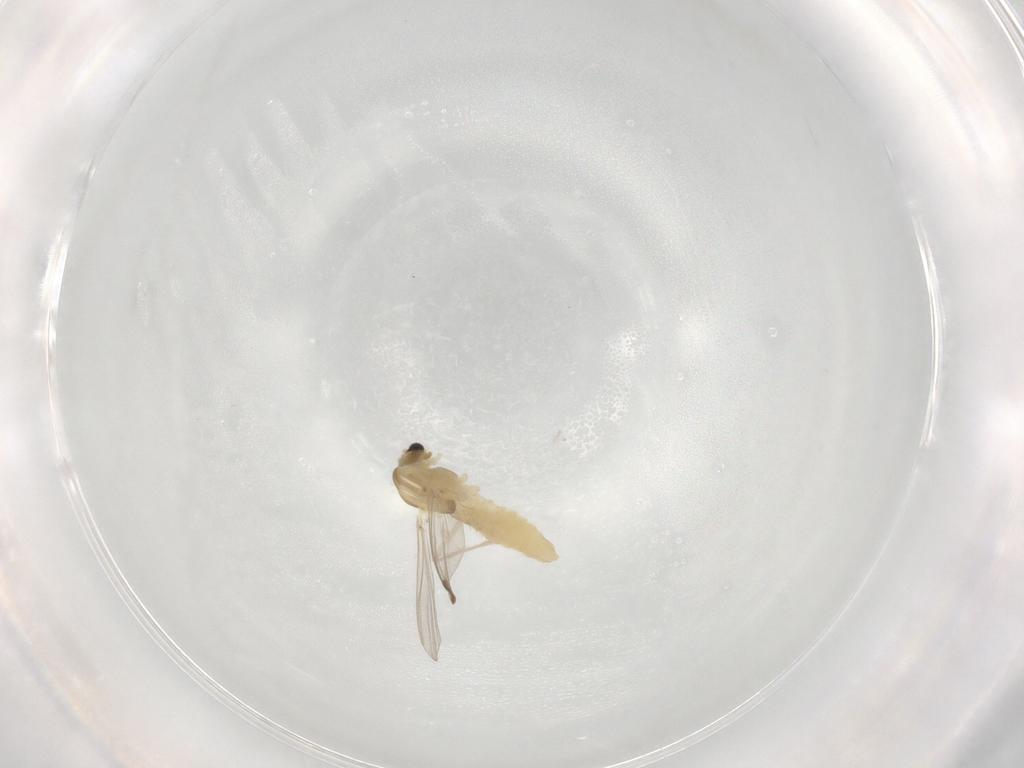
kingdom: Animalia
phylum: Arthropoda
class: Insecta
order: Diptera
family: Chironomidae
